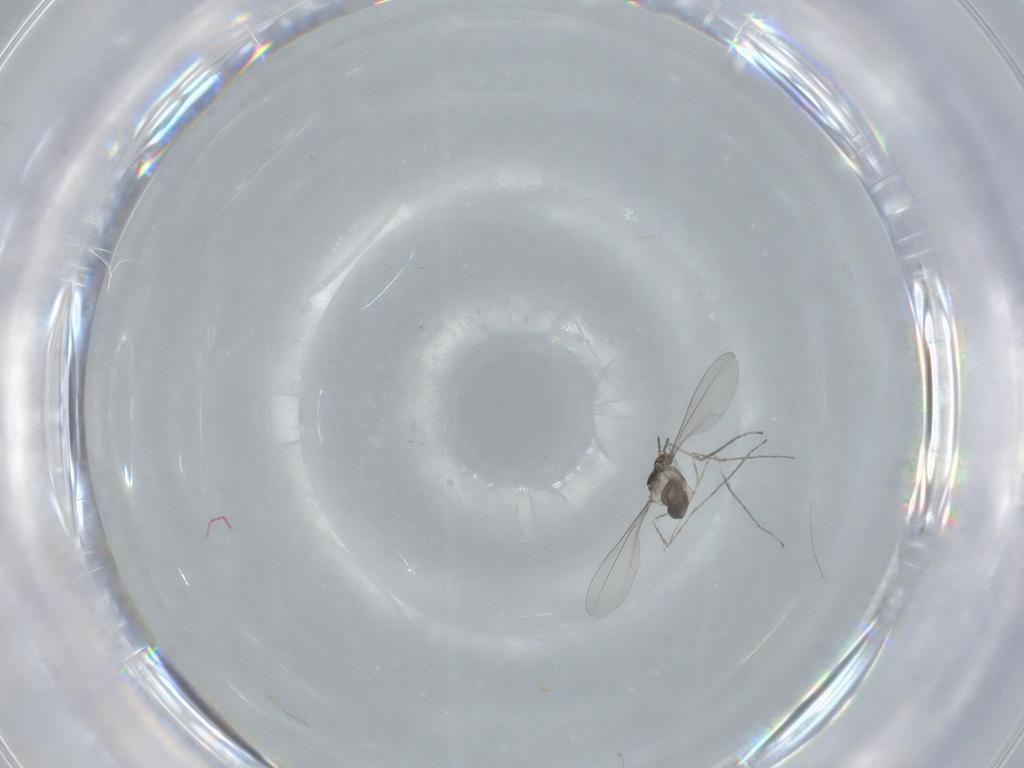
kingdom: Animalia
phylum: Arthropoda
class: Insecta
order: Diptera
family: Cecidomyiidae
